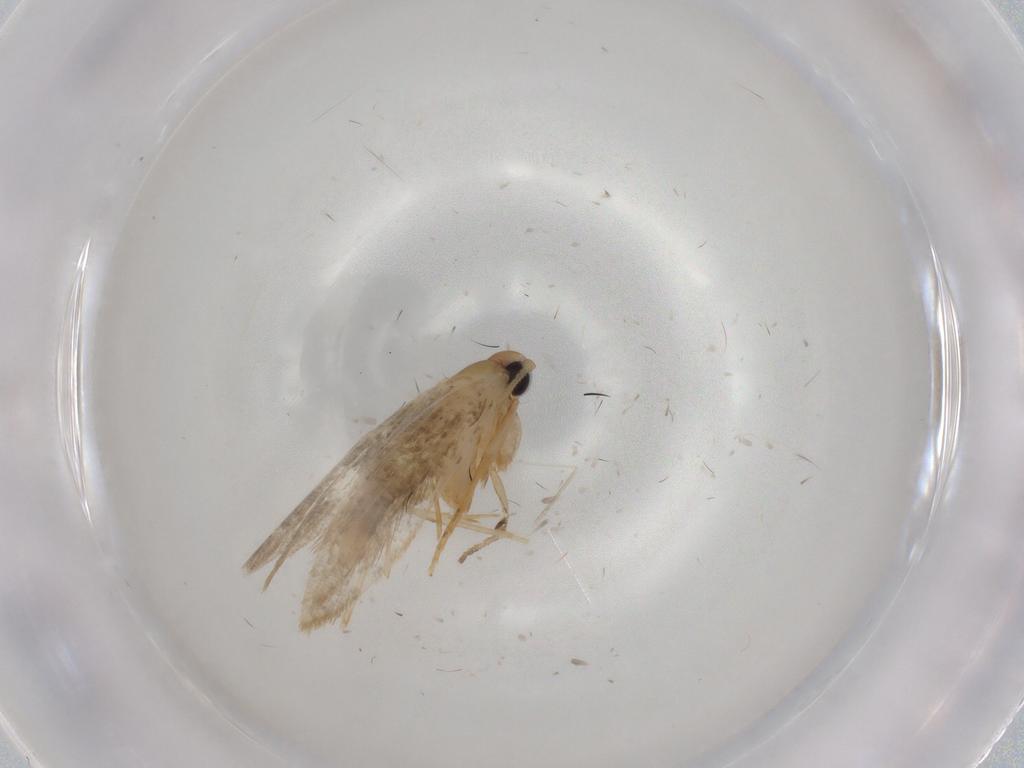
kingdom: Animalia
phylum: Arthropoda
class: Insecta
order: Lepidoptera
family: Cosmopterigidae
